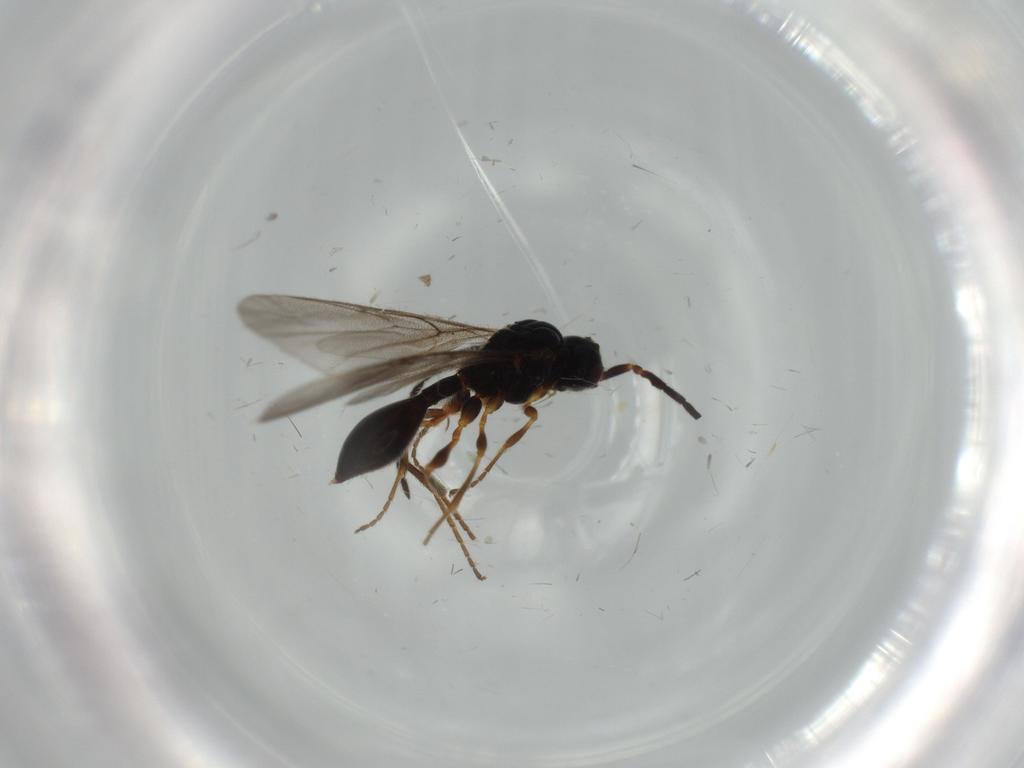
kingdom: Animalia
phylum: Arthropoda
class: Insecta
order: Hymenoptera
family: Diapriidae
